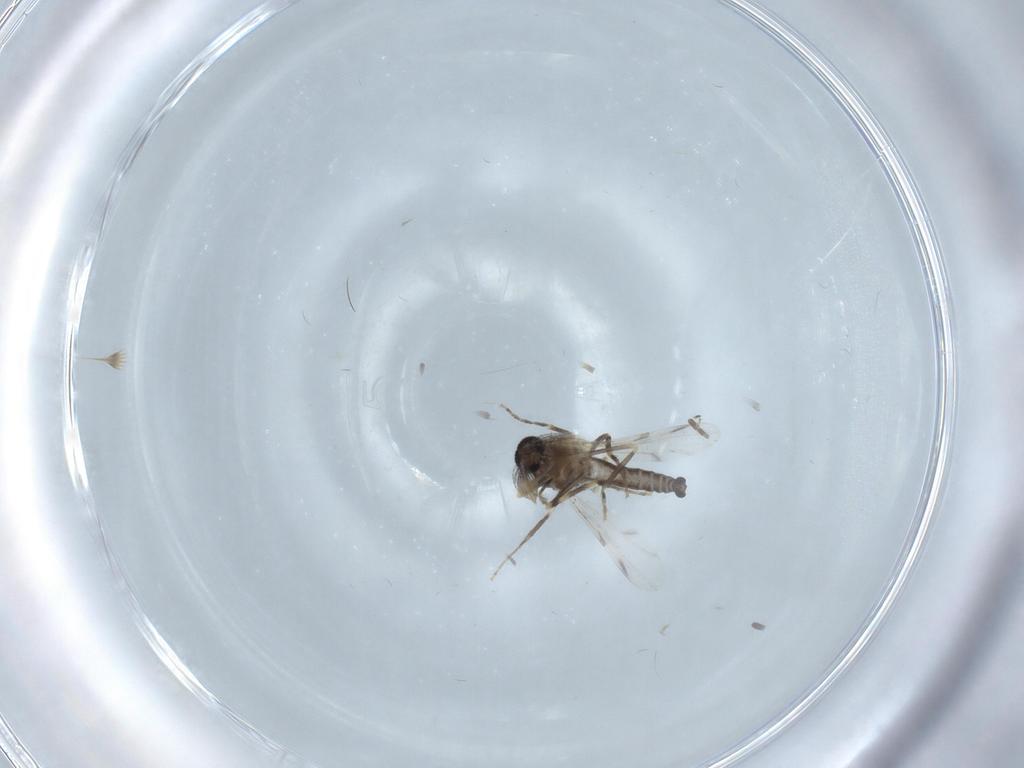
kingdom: Animalia
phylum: Arthropoda
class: Insecta
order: Diptera
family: Ceratopogonidae
